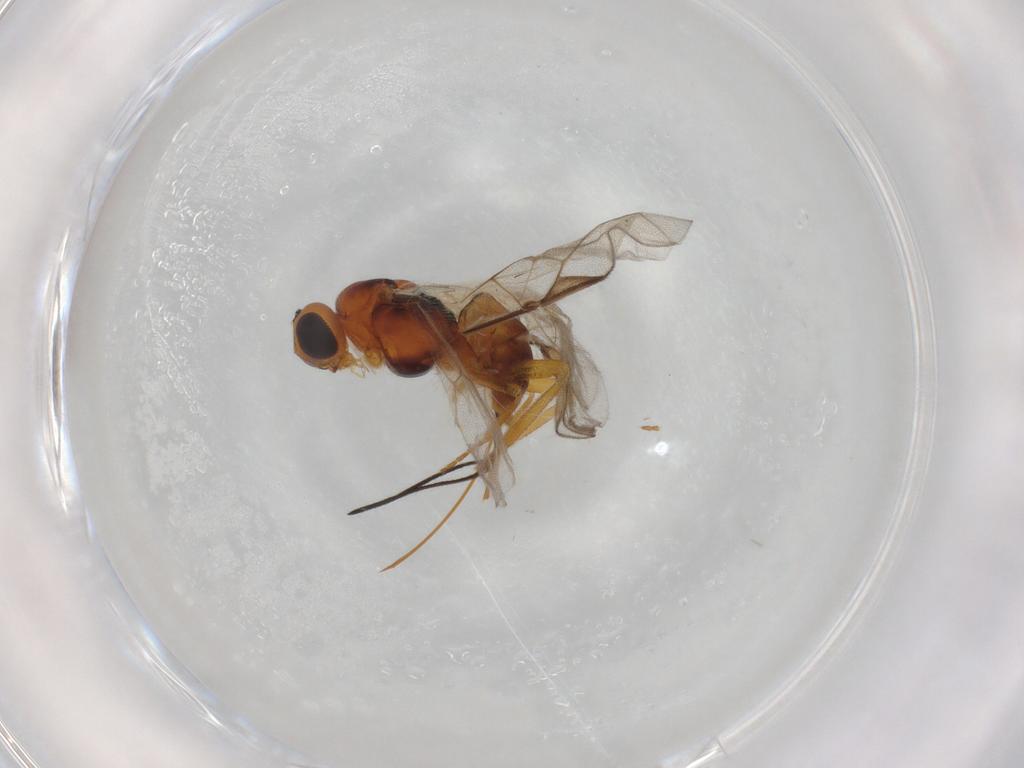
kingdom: Animalia
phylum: Arthropoda
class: Insecta
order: Hymenoptera
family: Braconidae
